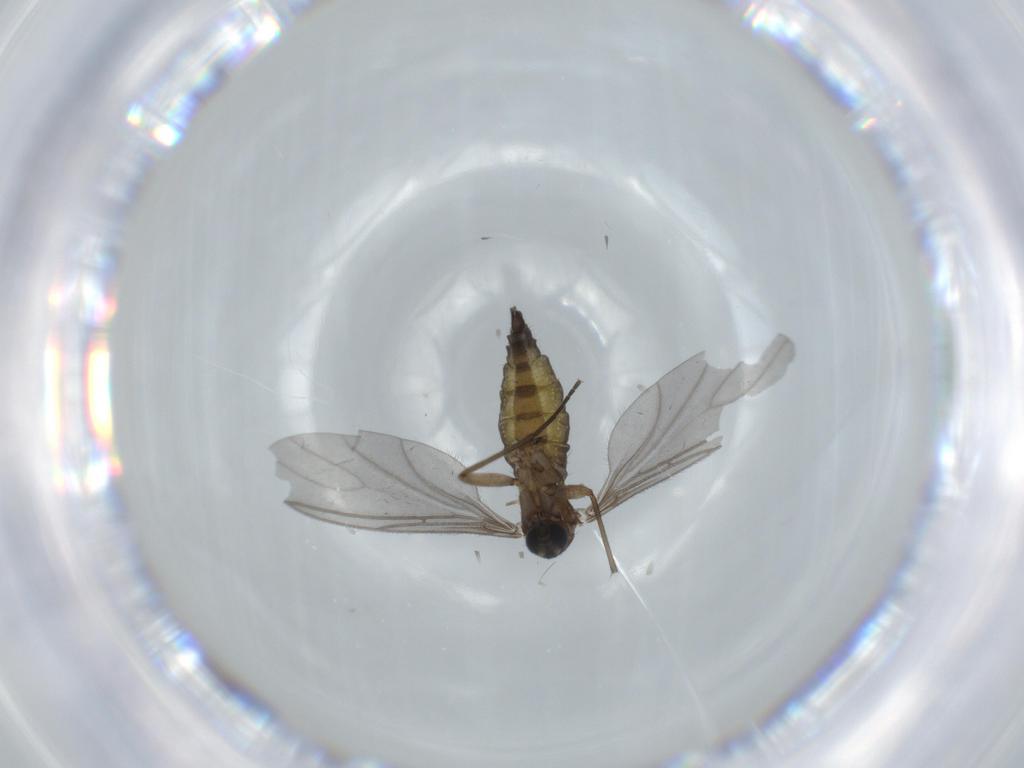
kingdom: Animalia
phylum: Arthropoda
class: Insecta
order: Diptera
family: Sciaridae
